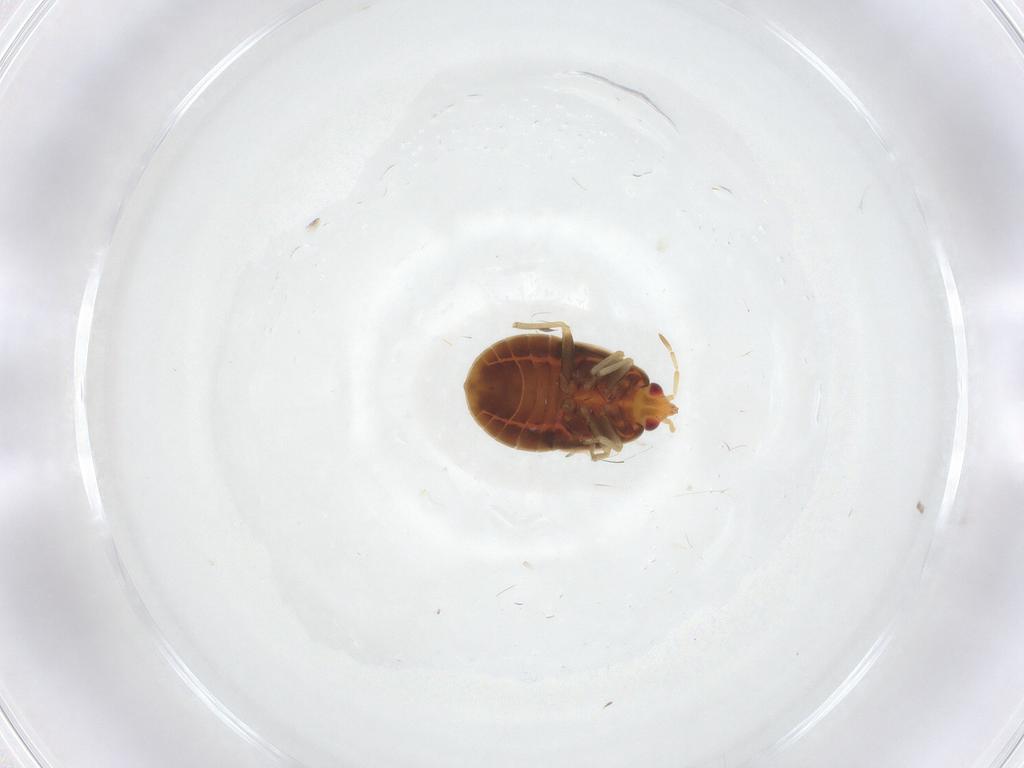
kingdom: Animalia
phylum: Arthropoda
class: Insecta
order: Hemiptera
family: Anthocoridae
